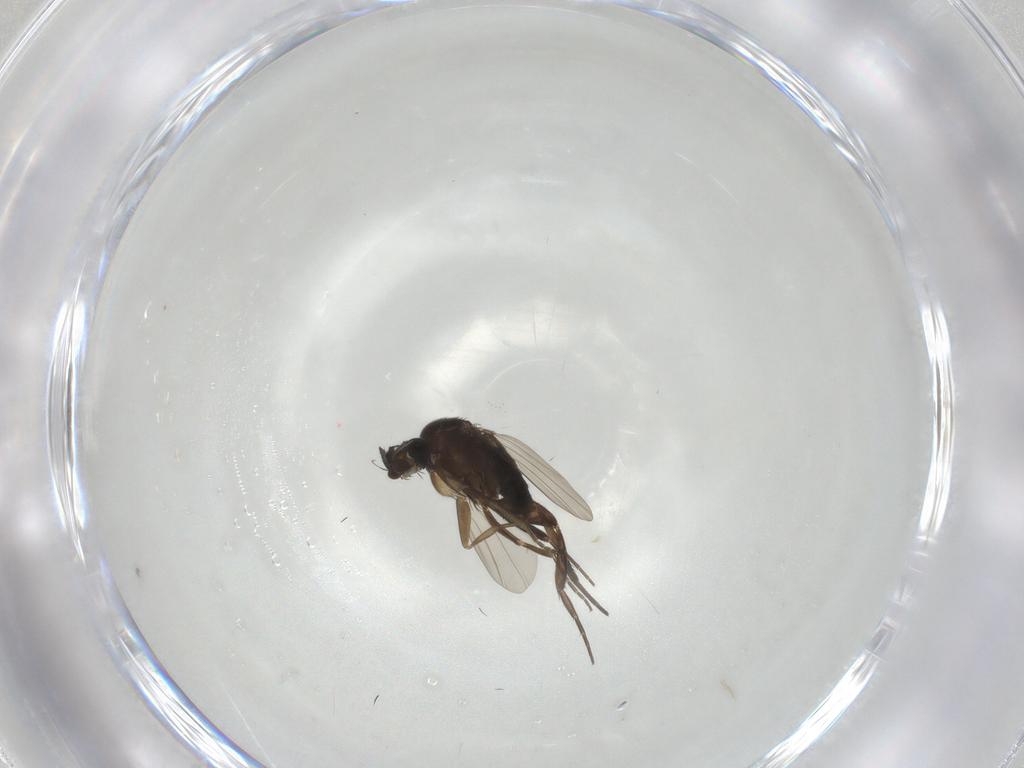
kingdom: Animalia
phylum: Arthropoda
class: Insecta
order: Diptera
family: Phoridae
